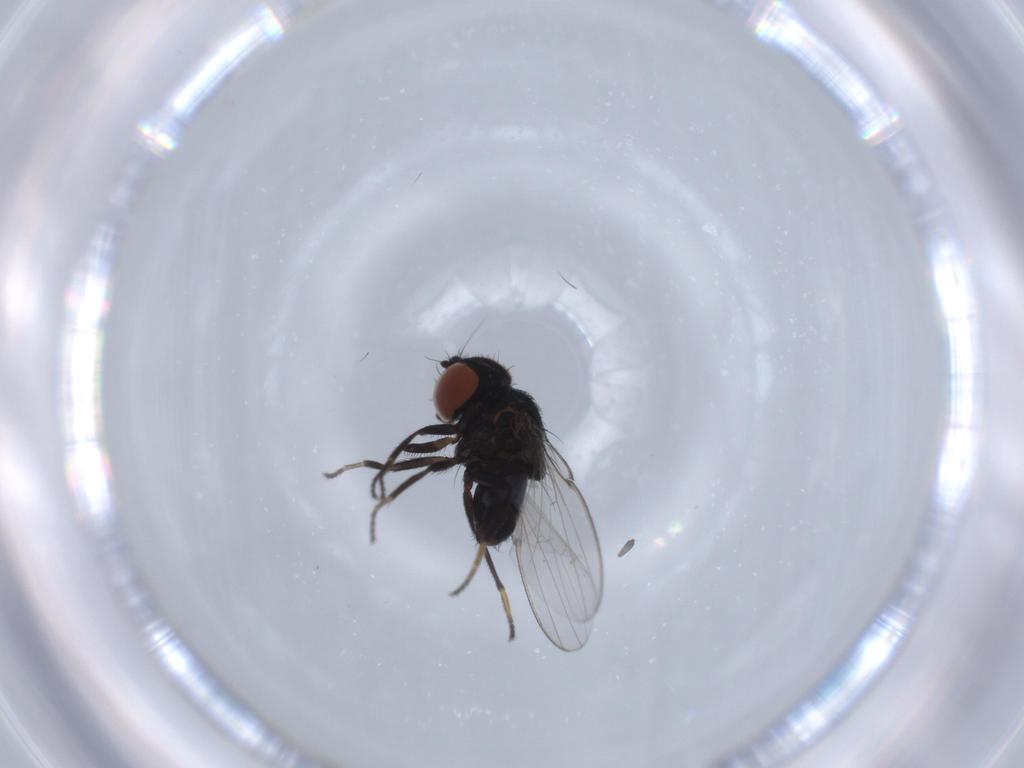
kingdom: Animalia
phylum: Arthropoda
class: Insecta
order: Diptera
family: Milichiidae
